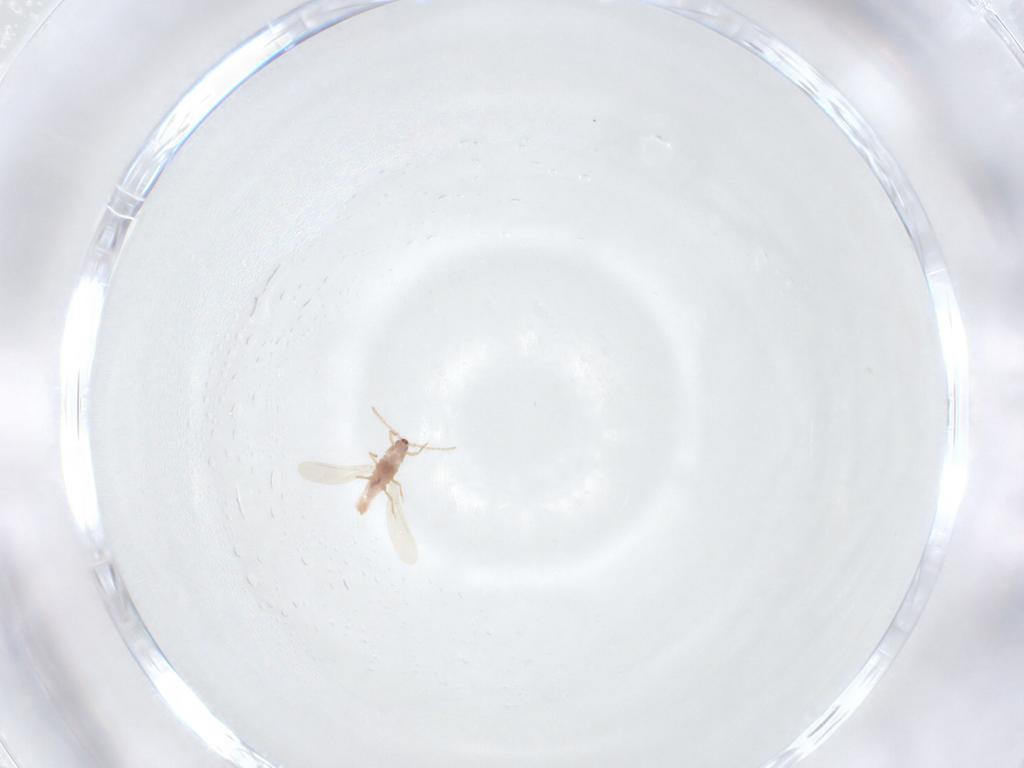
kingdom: Animalia
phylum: Arthropoda
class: Insecta
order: Hemiptera
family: Pseudococcidae
